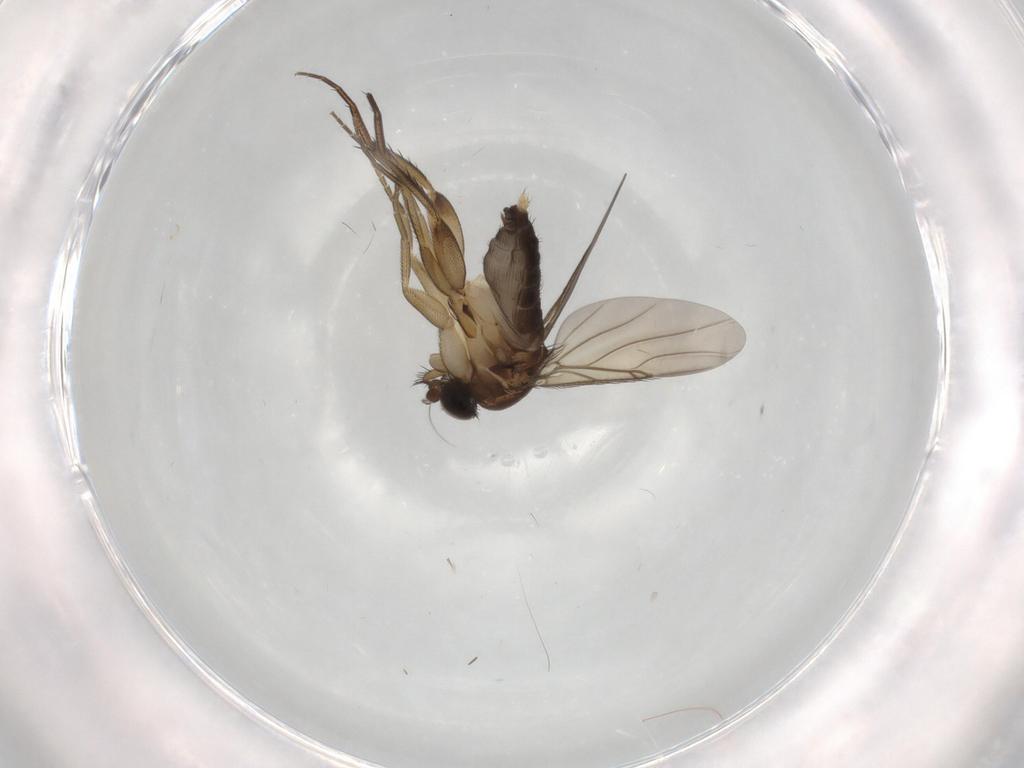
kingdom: Animalia
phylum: Arthropoda
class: Insecta
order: Diptera
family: Phoridae
